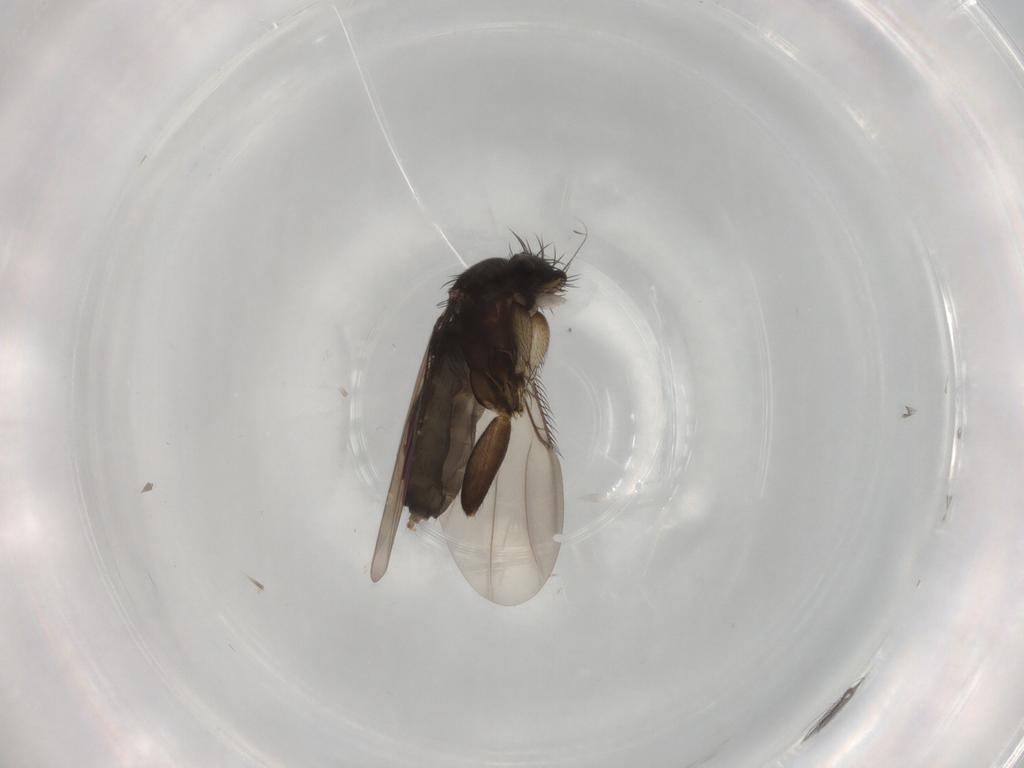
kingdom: Animalia
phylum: Arthropoda
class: Insecta
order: Diptera
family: Phoridae
